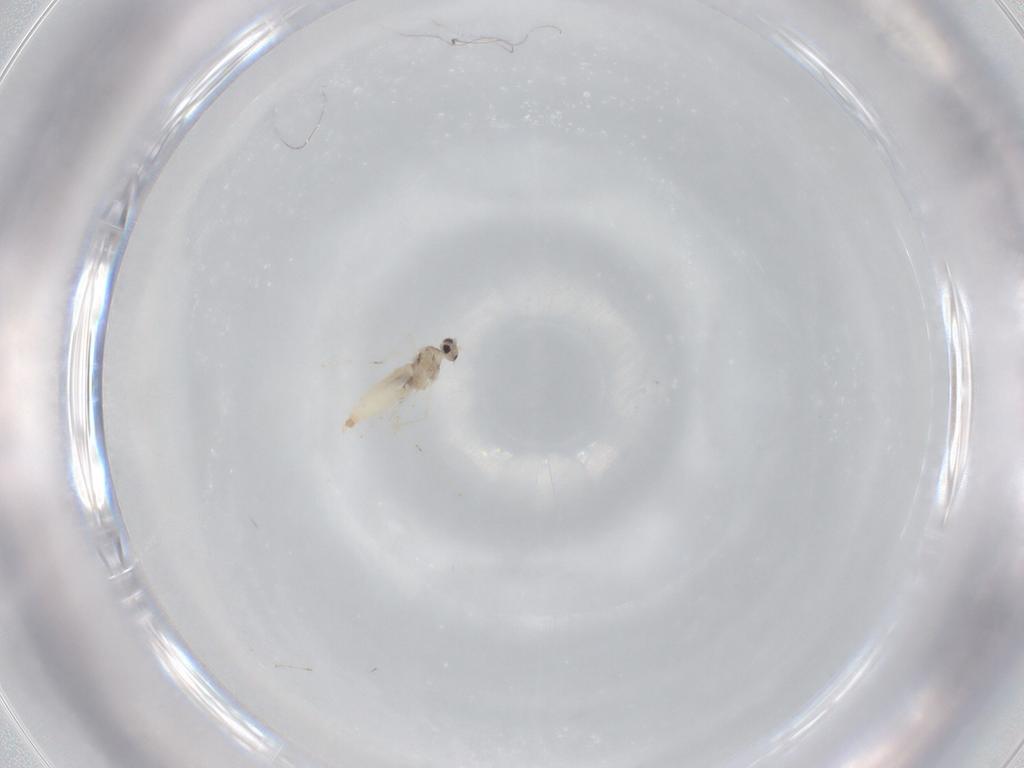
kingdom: Animalia
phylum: Arthropoda
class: Insecta
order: Diptera
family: Cecidomyiidae
